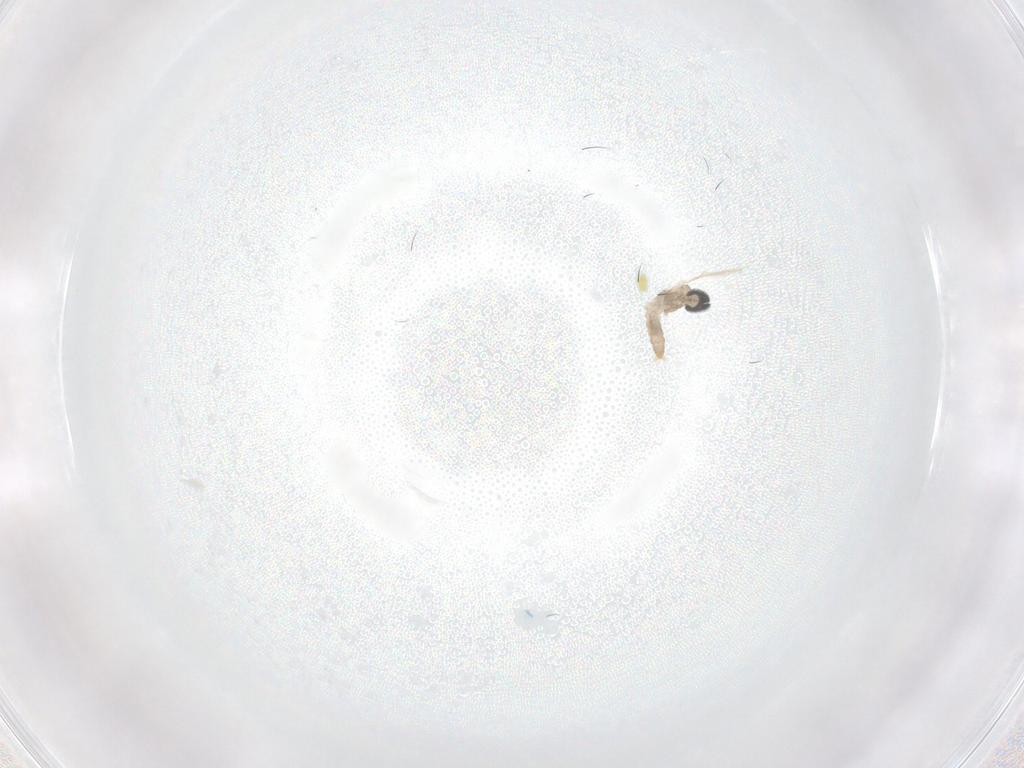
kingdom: Animalia
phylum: Arthropoda
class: Insecta
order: Diptera
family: Cecidomyiidae
